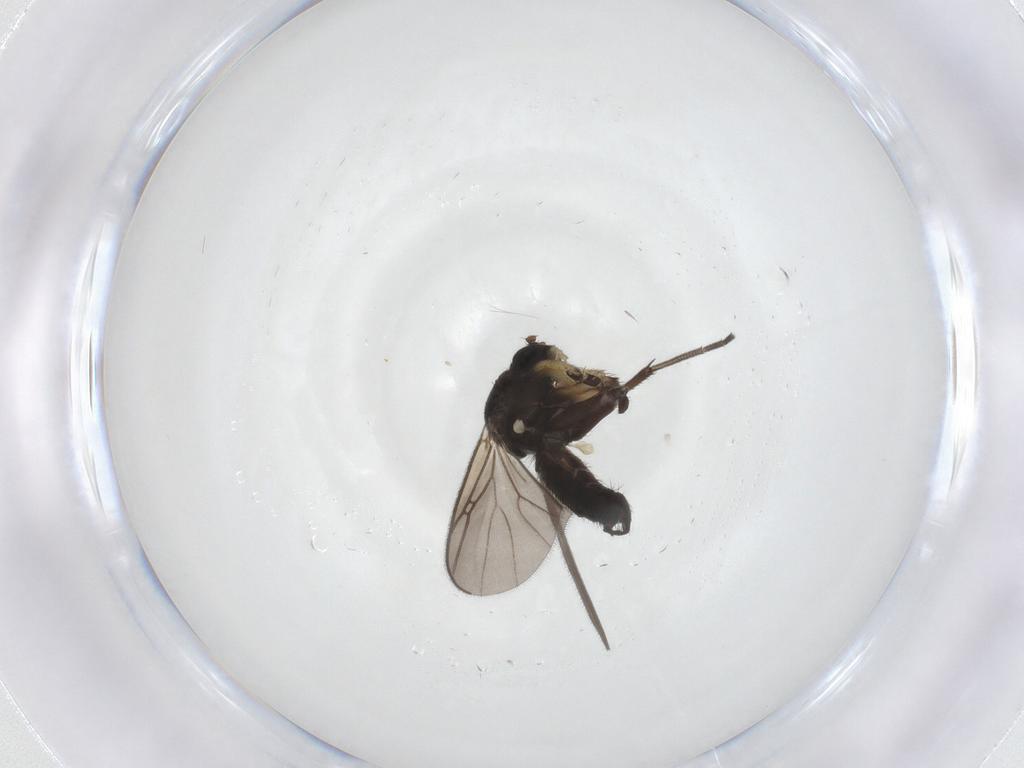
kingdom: Animalia
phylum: Arthropoda
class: Insecta
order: Diptera
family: Mycetophilidae
